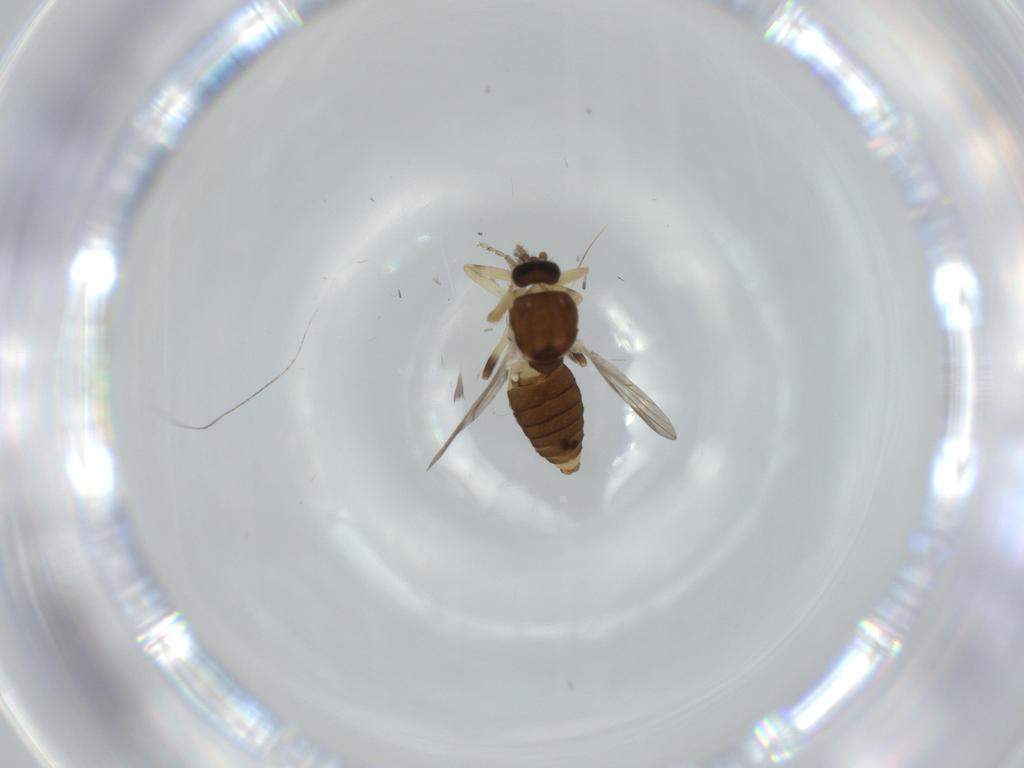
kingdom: Animalia
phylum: Arthropoda
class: Insecta
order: Diptera
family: Ceratopogonidae
